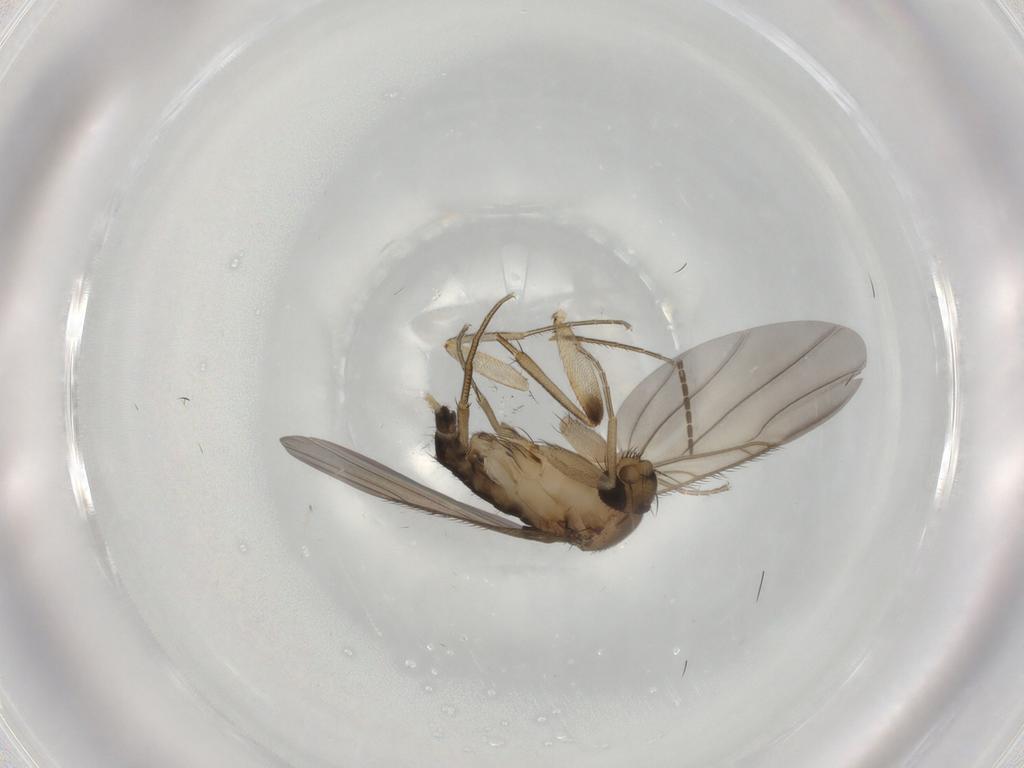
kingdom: Animalia
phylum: Arthropoda
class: Insecta
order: Diptera
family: Phoridae
